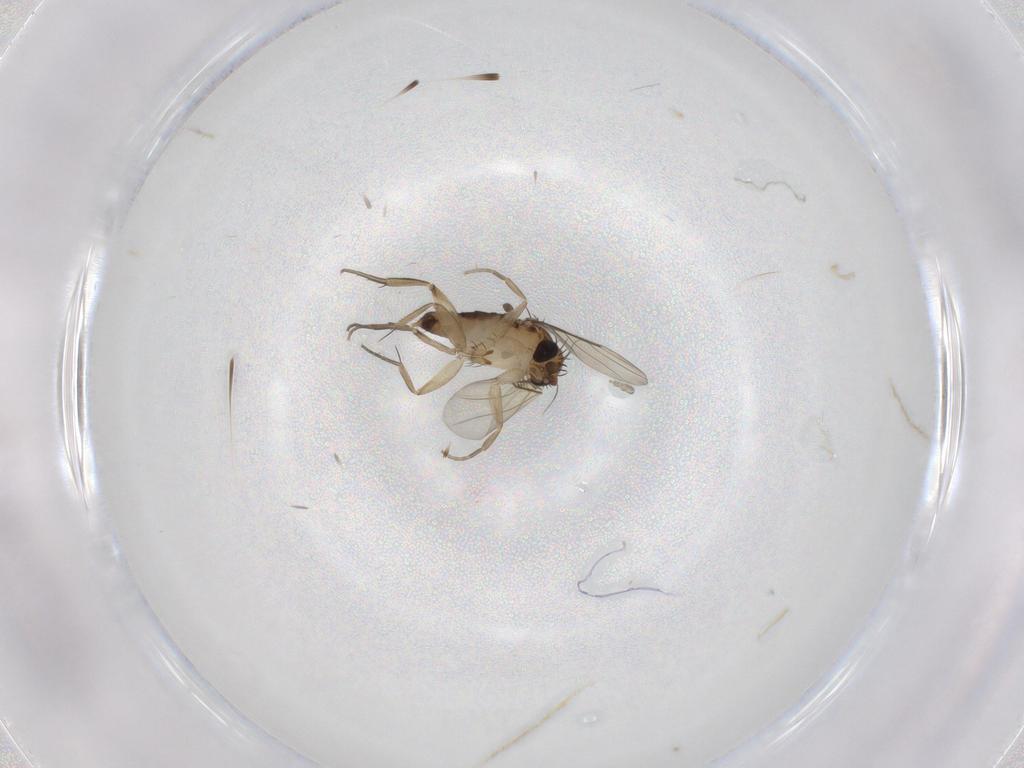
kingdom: Animalia
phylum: Arthropoda
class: Insecta
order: Diptera
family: Phoridae
